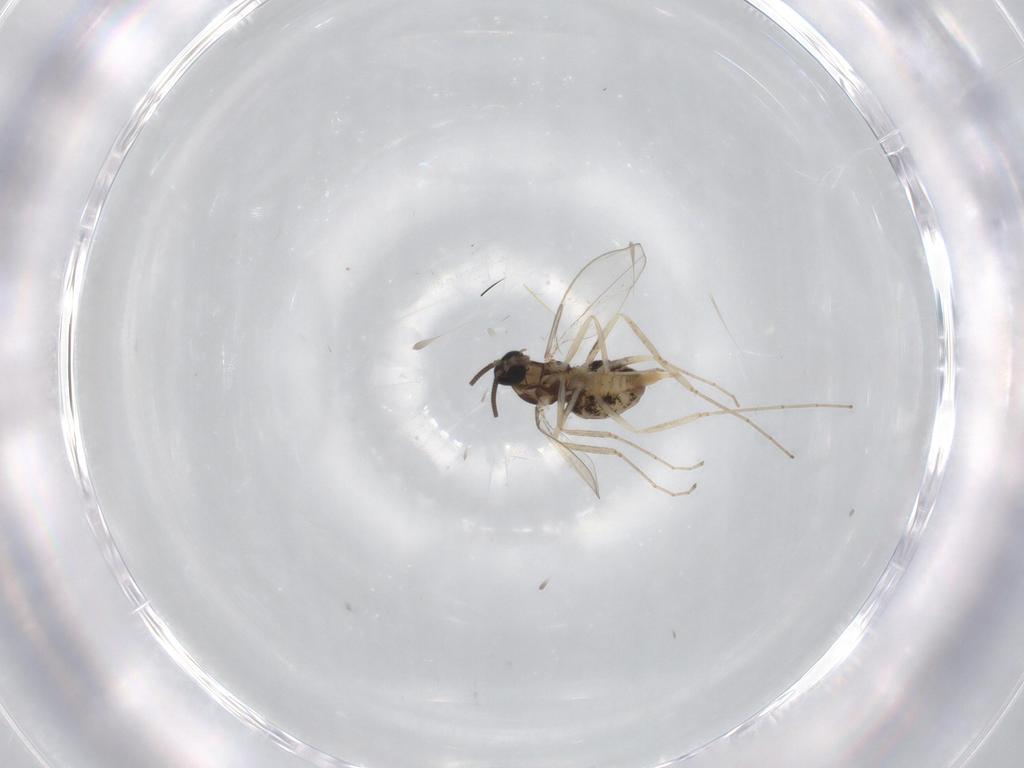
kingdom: Animalia
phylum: Arthropoda
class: Insecta
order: Diptera
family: Cecidomyiidae
